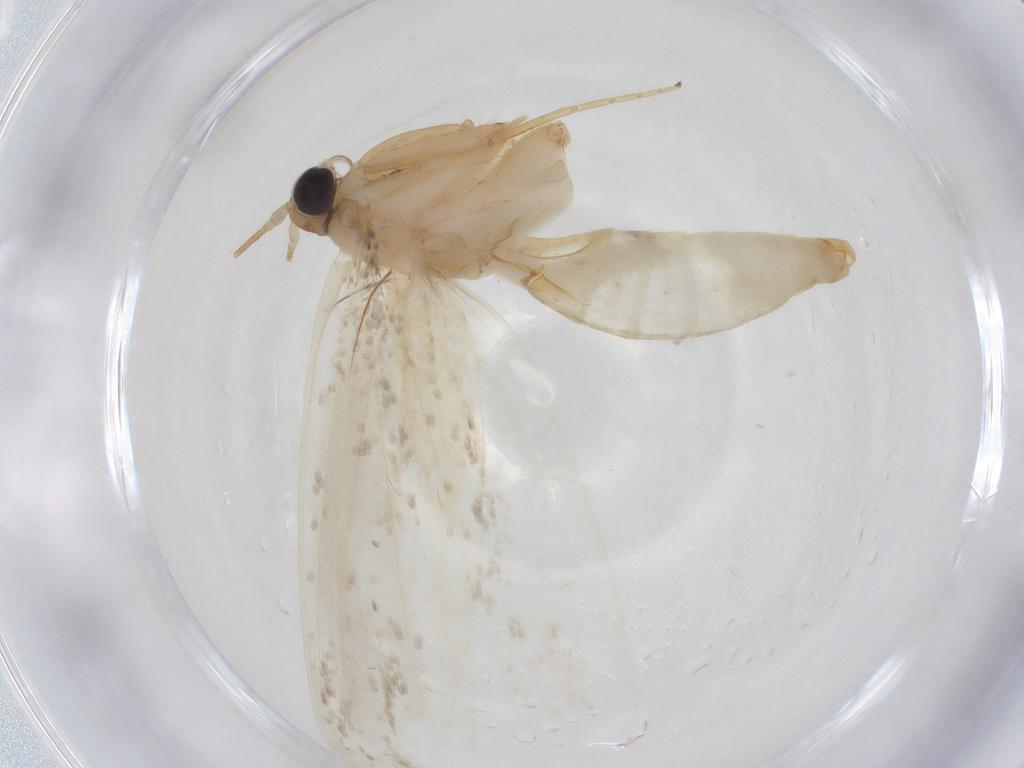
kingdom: Animalia
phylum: Arthropoda
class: Insecta
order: Lepidoptera
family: Tineidae
